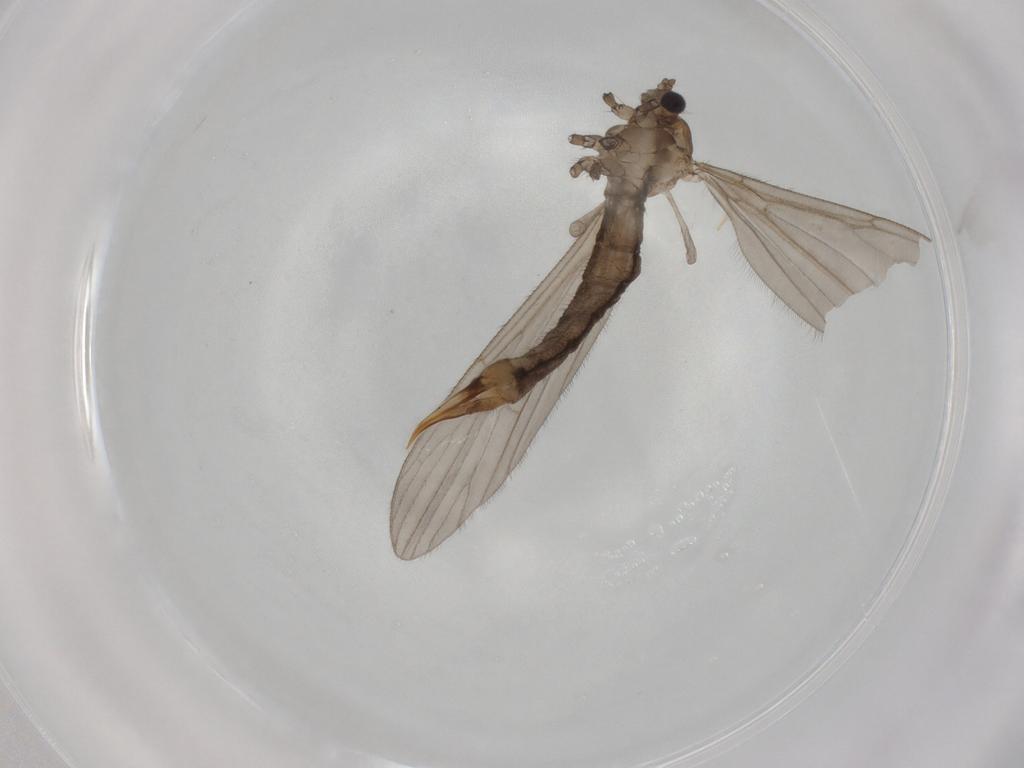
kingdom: Animalia
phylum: Arthropoda
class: Insecta
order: Diptera
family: Limoniidae
